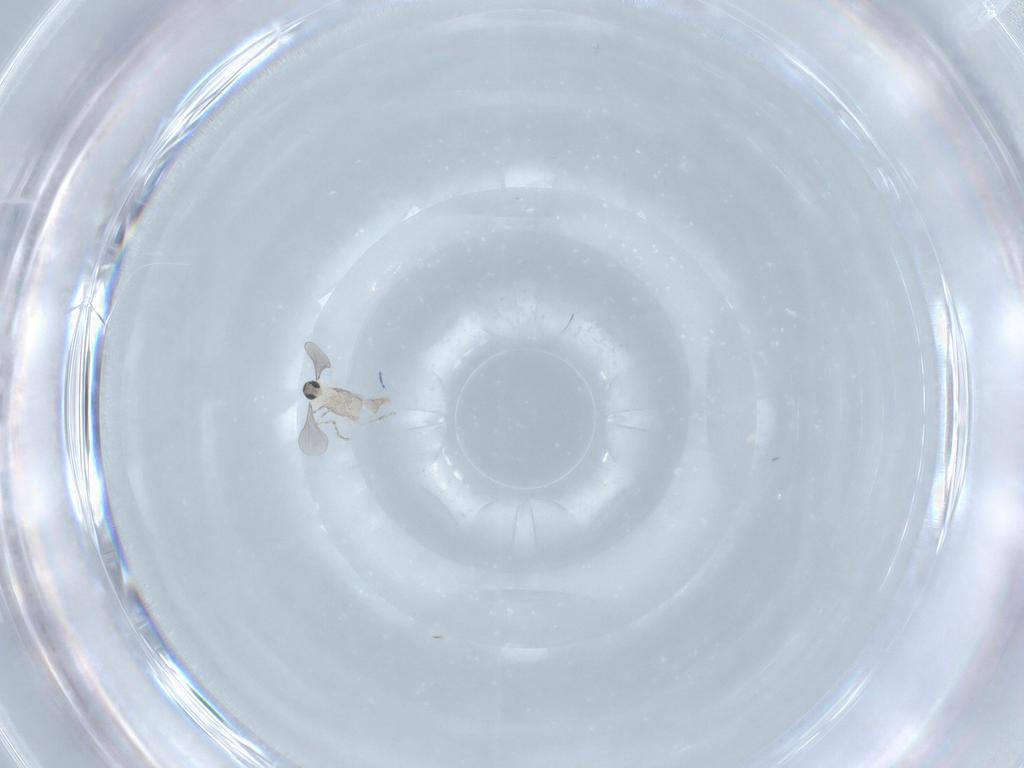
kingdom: Animalia
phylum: Arthropoda
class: Insecta
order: Diptera
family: Cecidomyiidae
